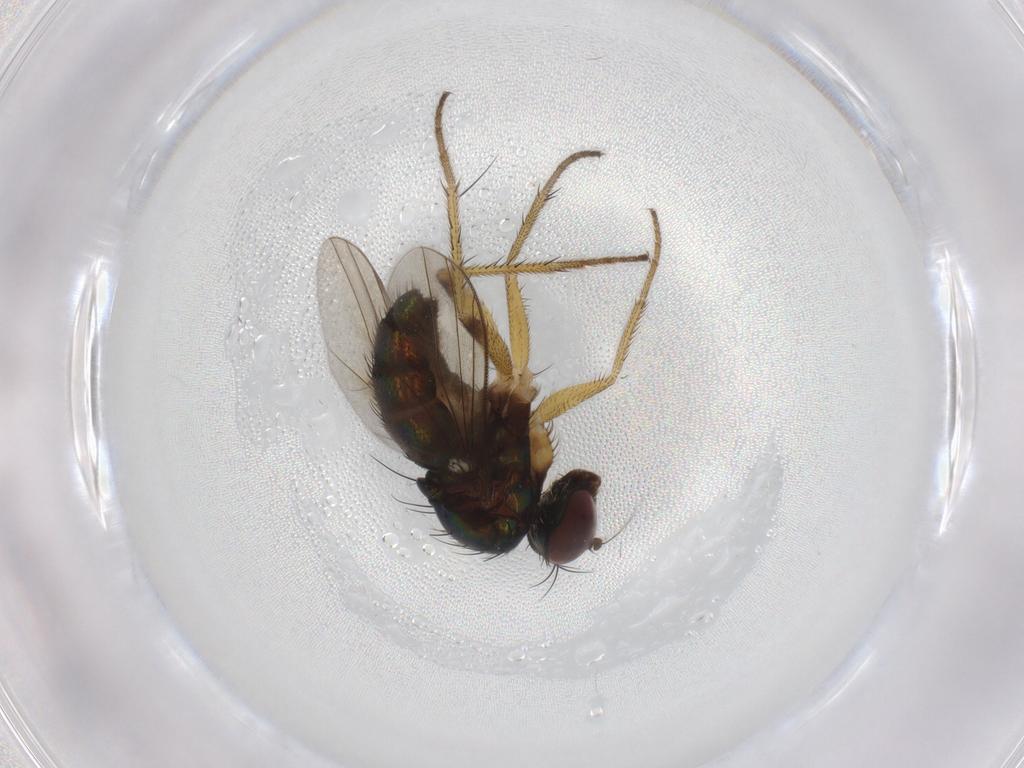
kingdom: Animalia
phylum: Arthropoda
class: Insecta
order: Diptera
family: Dolichopodidae
